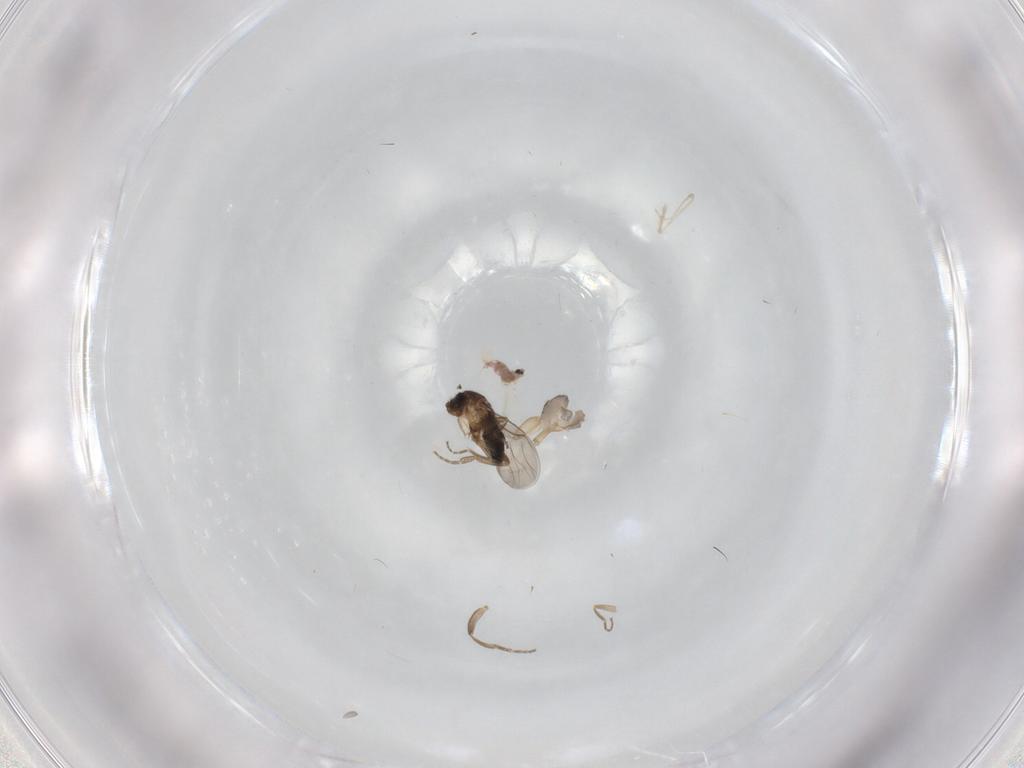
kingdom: Animalia
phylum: Arthropoda
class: Insecta
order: Diptera
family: Phoridae
